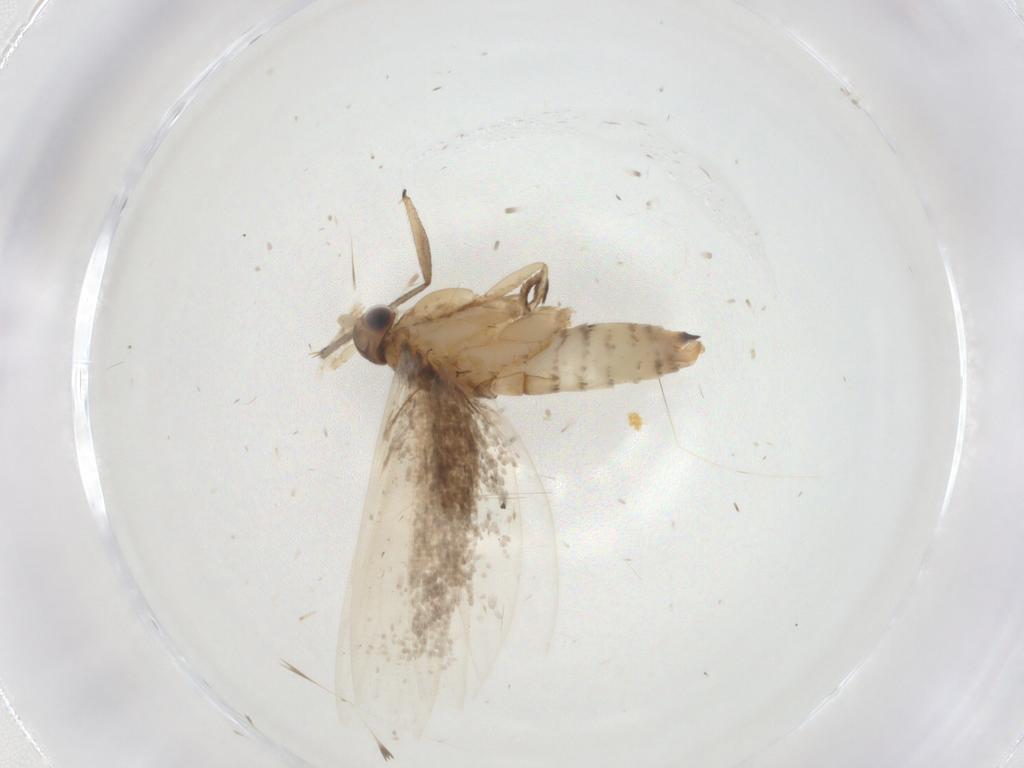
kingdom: Animalia
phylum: Arthropoda
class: Insecta
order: Lepidoptera
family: Tineidae
